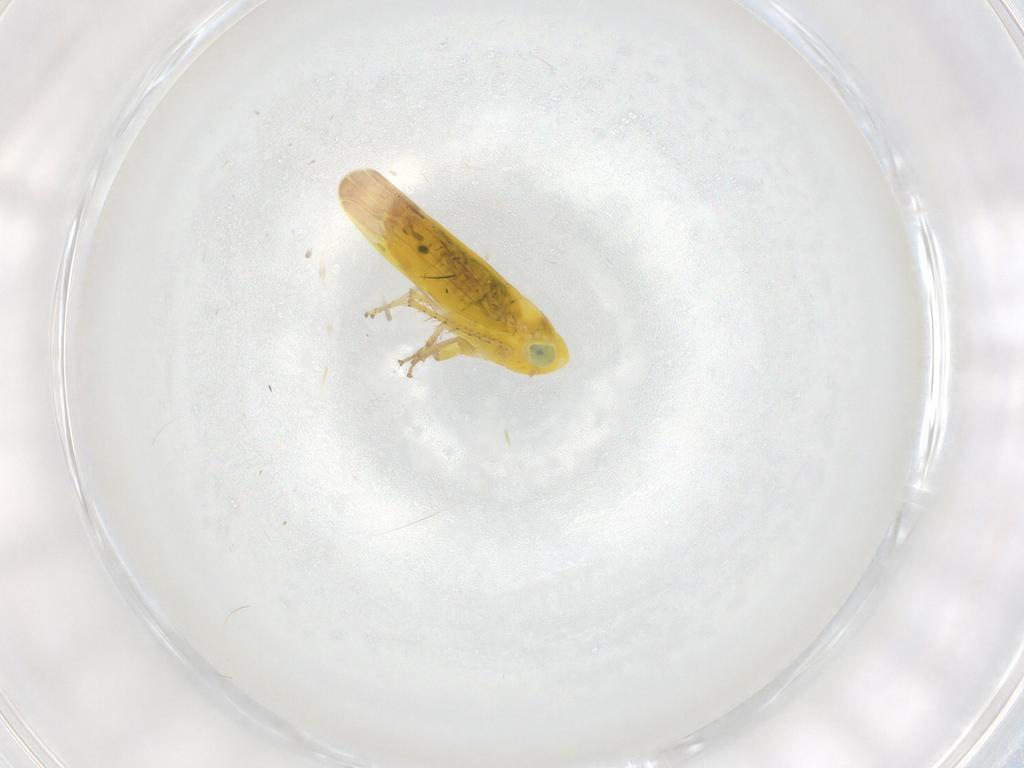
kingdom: Animalia
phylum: Arthropoda
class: Insecta
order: Hemiptera
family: Cicadellidae
